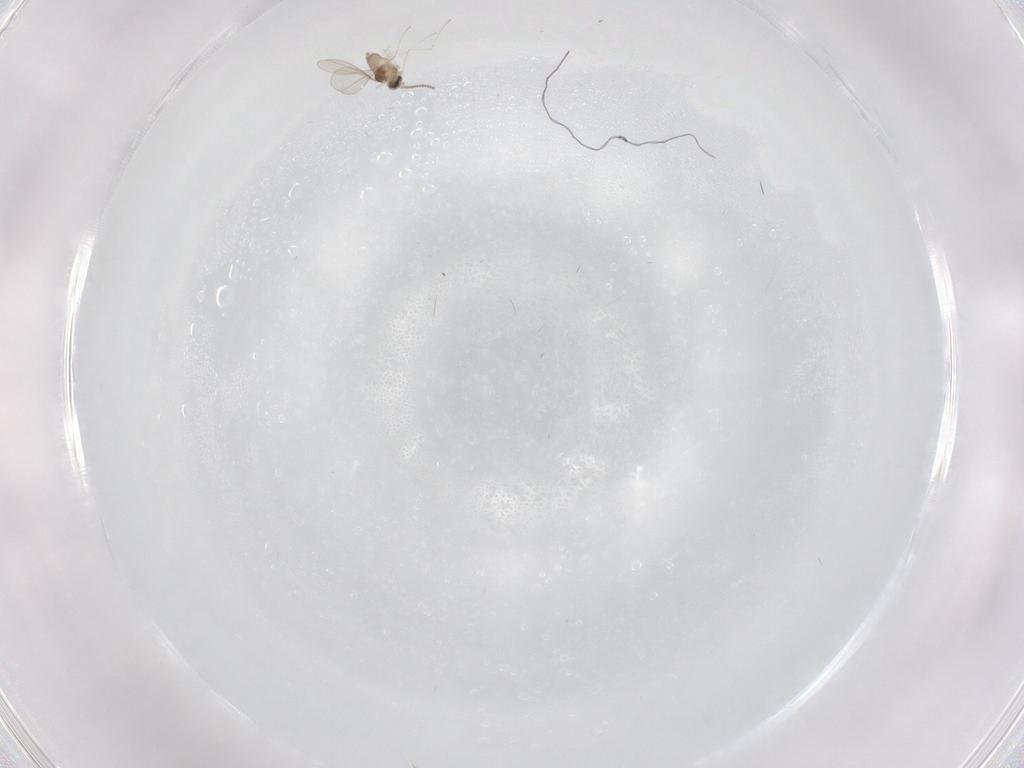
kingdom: Animalia
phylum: Arthropoda
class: Insecta
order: Diptera
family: Cecidomyiidae
